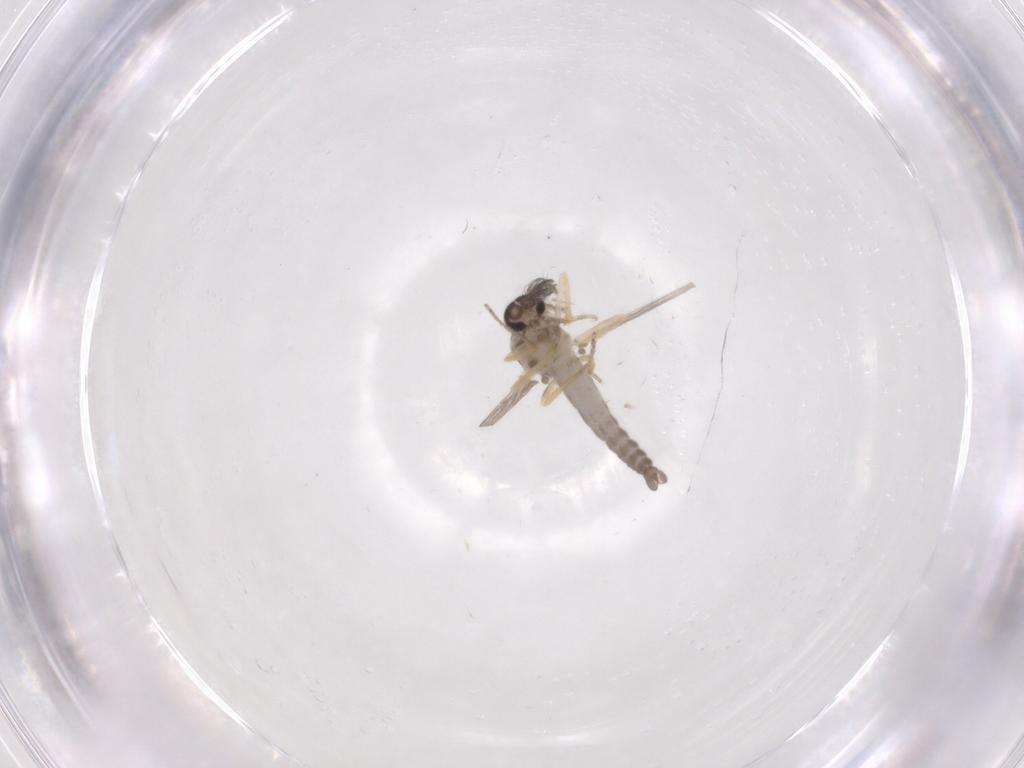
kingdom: Animalia
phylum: Arthropoda
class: Insecta
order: Diptera
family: Ceratopogonidae
